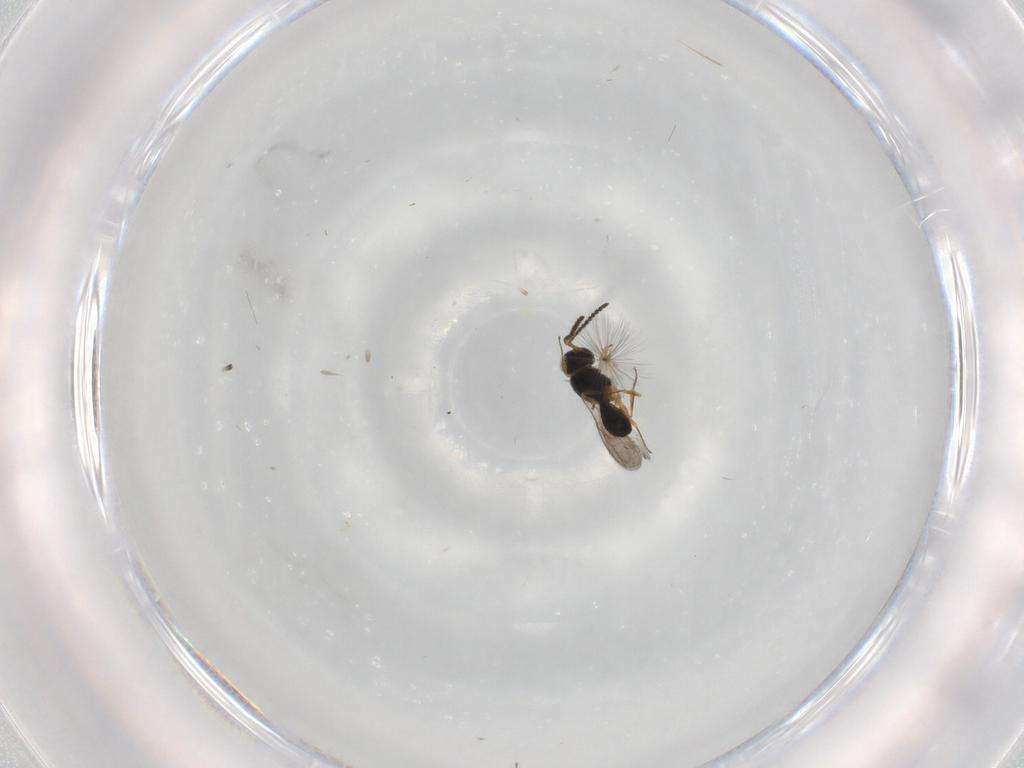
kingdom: Animalia
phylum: Arthropoda
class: Insecta
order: Hymenoptera
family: Scelionidae
